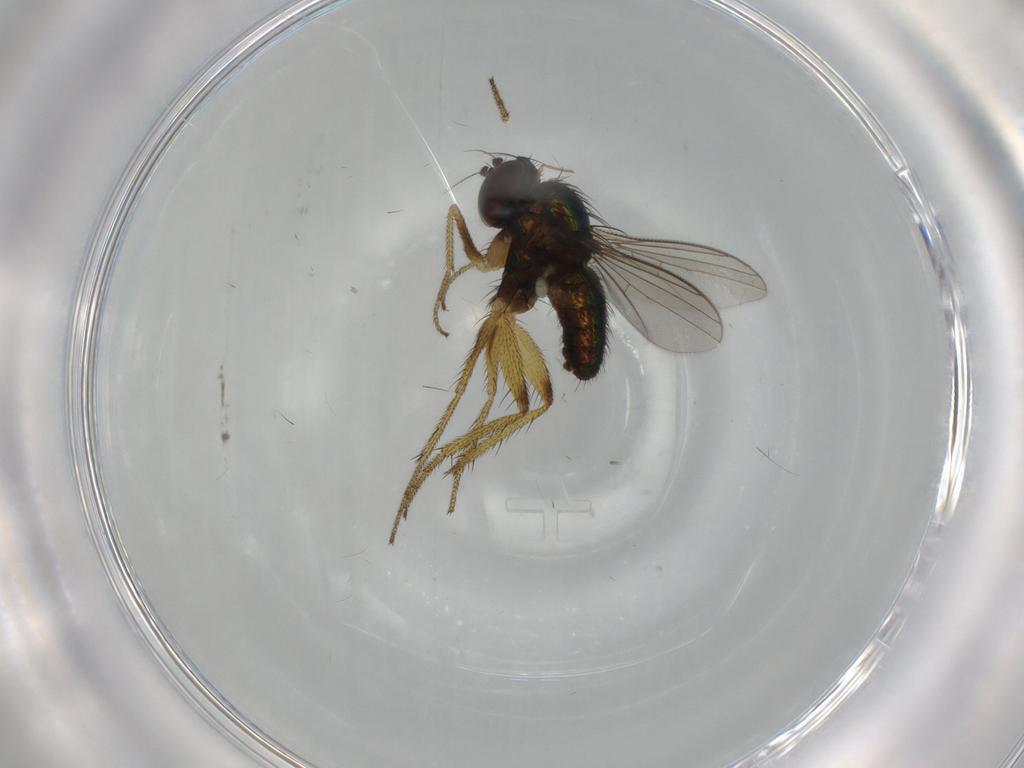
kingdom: Animalia
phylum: Arthropoda
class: Insecta
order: Diptera
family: Dolichopodidae
